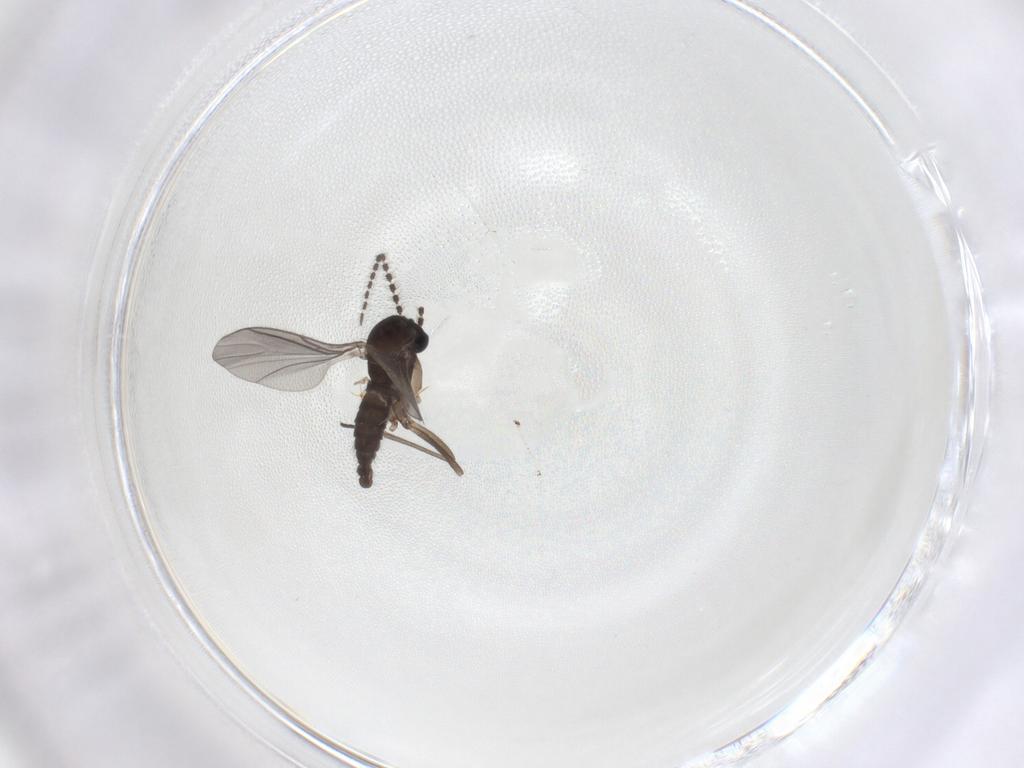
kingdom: Animalia
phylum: Arthropoda
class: Insecta
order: Diptera
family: Sciaridae
